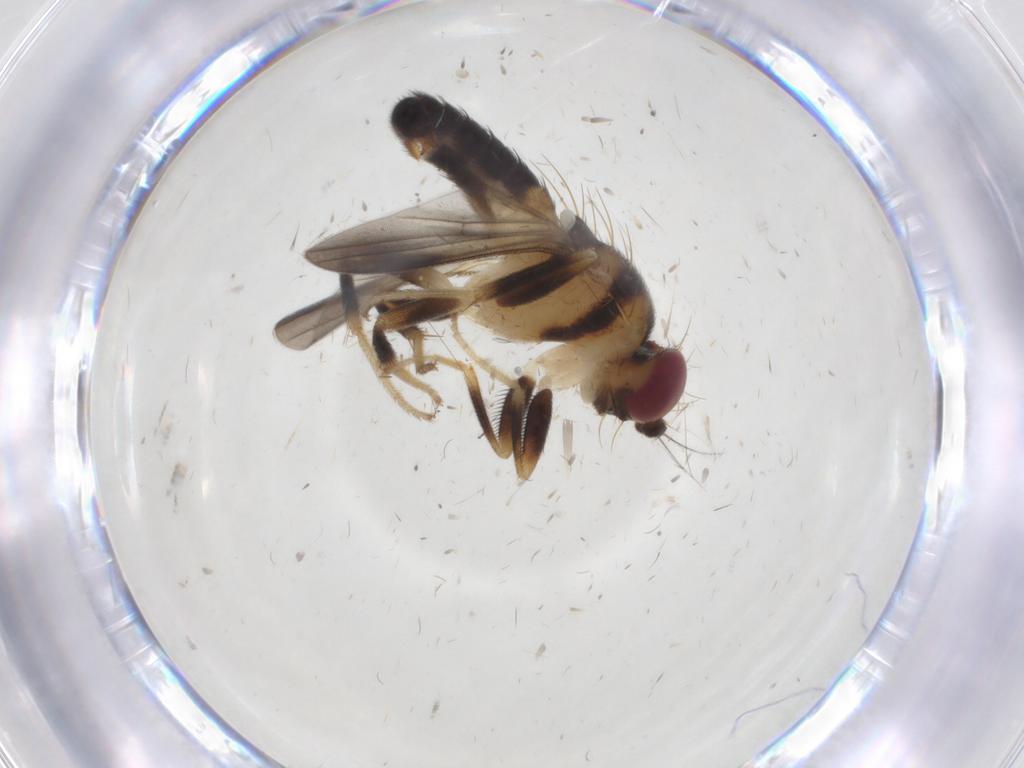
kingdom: Animalia
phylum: Arthropoda
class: Insecta
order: Diptera
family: Clusiidae
